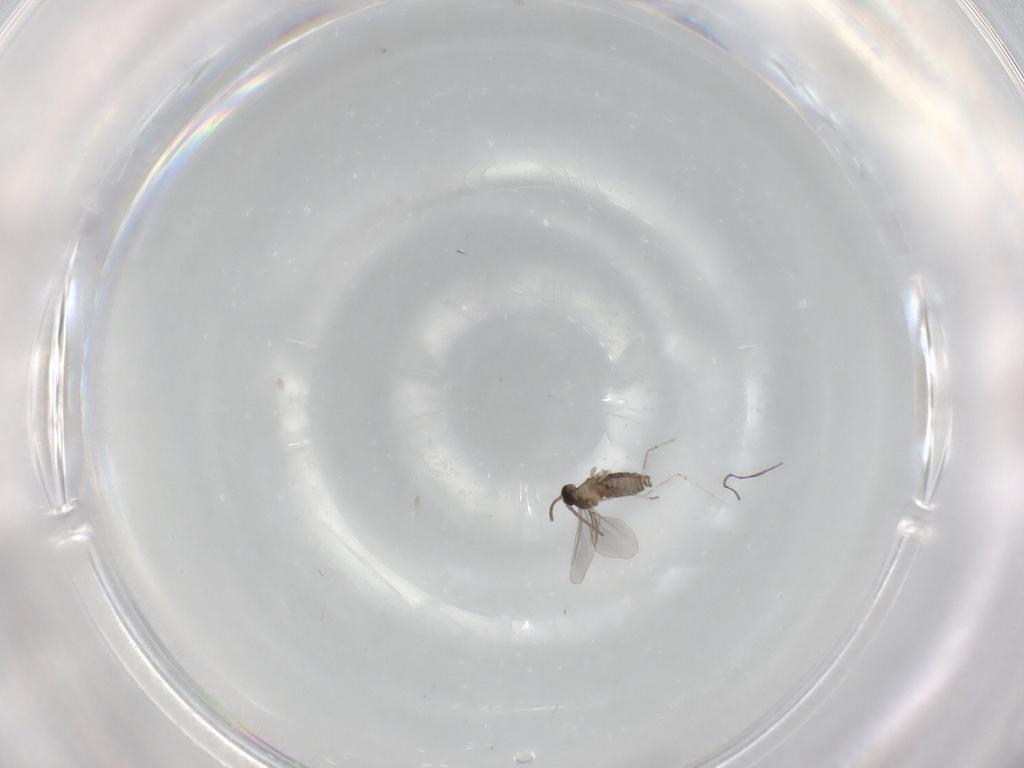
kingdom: Animalia
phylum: Arthropoda
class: Insecta
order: Diptera
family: Cecidomyiidae
